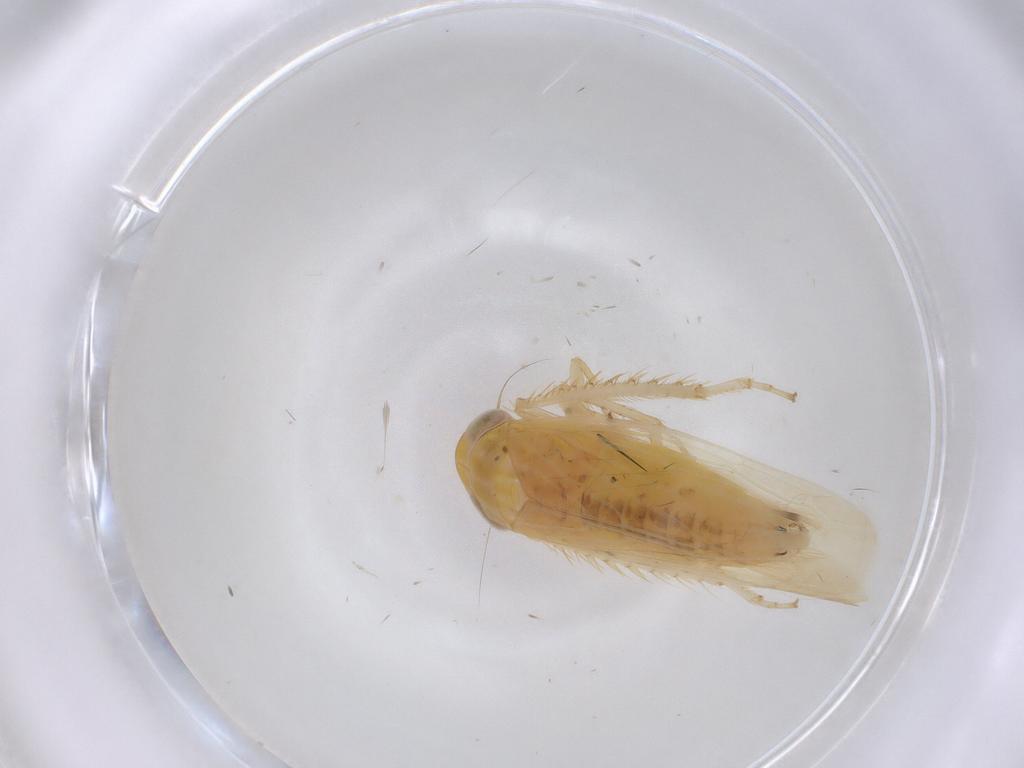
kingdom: Animalia
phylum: Arthropoda
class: Insecta
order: Hemiptera
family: Cicadellidae
